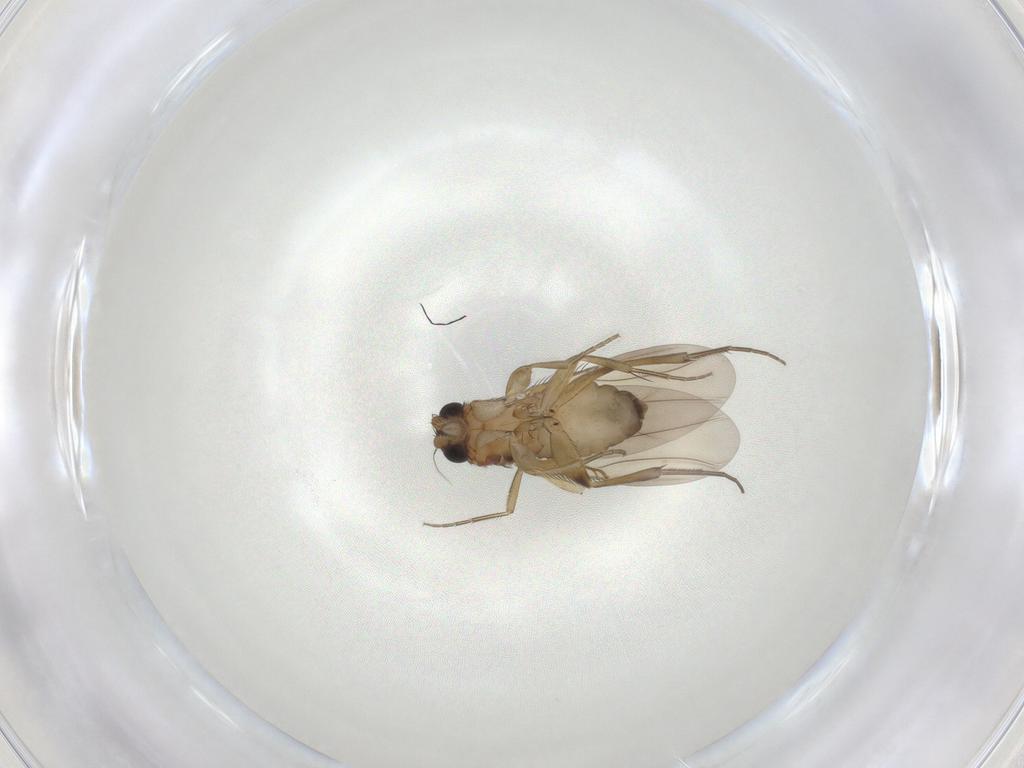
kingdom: Animalia
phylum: Arthropoda
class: Insecta
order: Diptera
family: Phoridae
